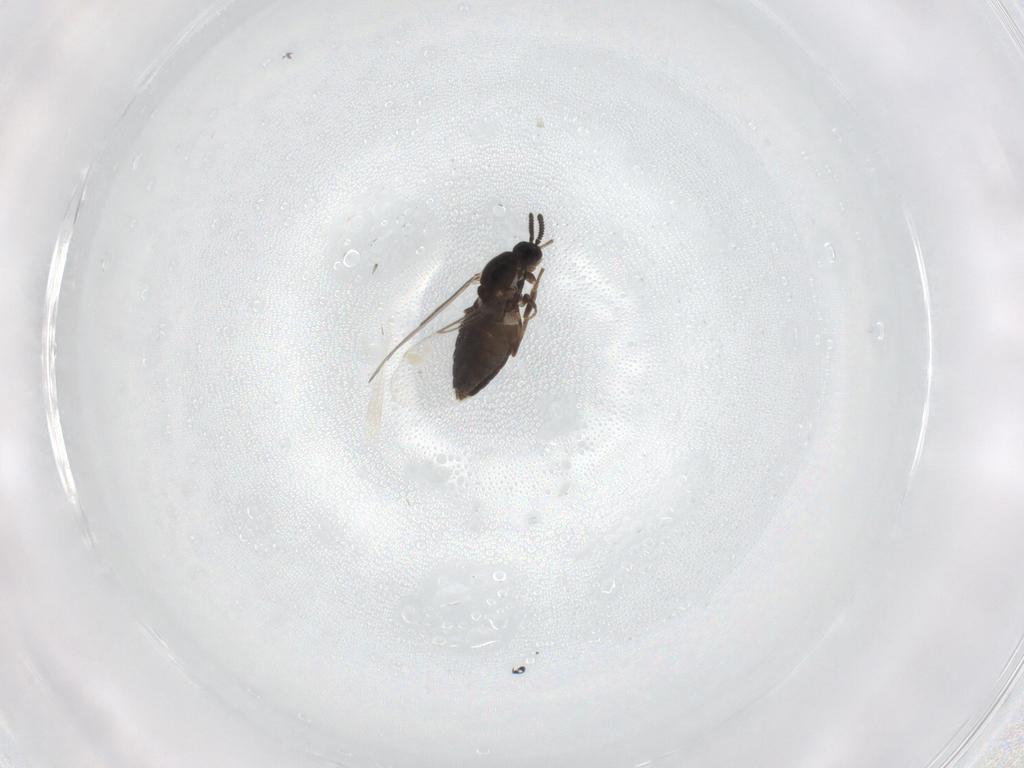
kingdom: Animalia
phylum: Arthropoda
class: Insecta
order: Diptera
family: Scatopsidae
